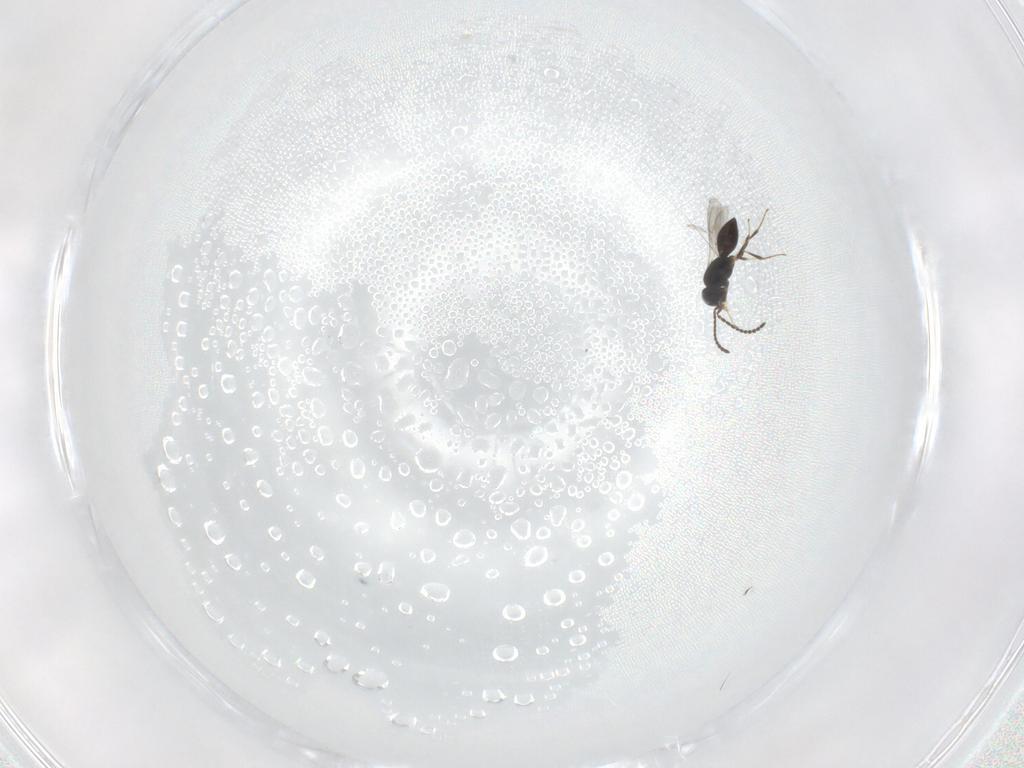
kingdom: Animalia
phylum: Arthropoda
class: Insecta
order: Hymenoptera
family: Scelionidae
